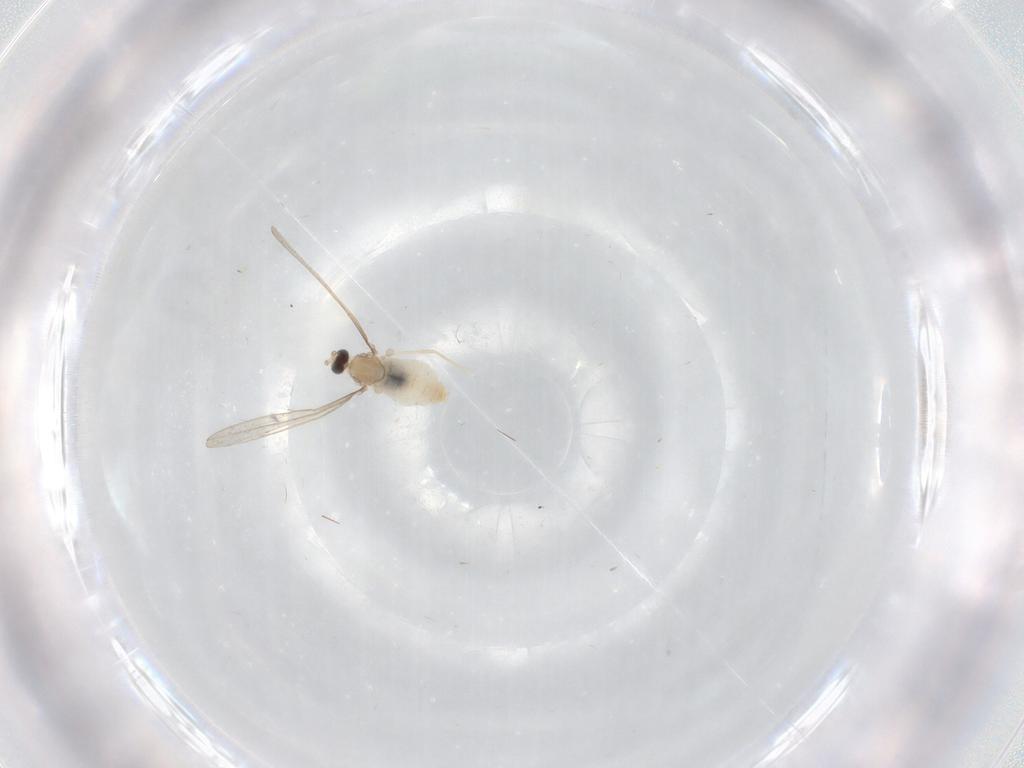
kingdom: Animalia
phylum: Arthropoda
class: Insecta
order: Diptera
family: Cecidomyiidae
